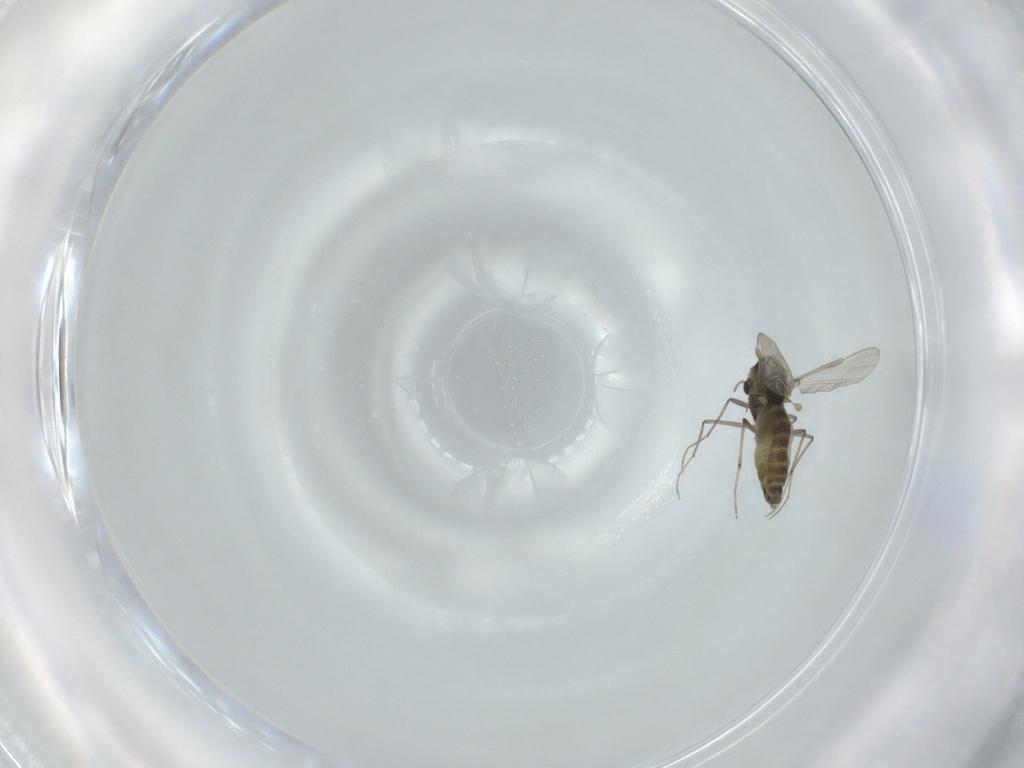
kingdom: Animalia
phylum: Arthropoda
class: Insecta
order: Diptera
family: Chironomidae
